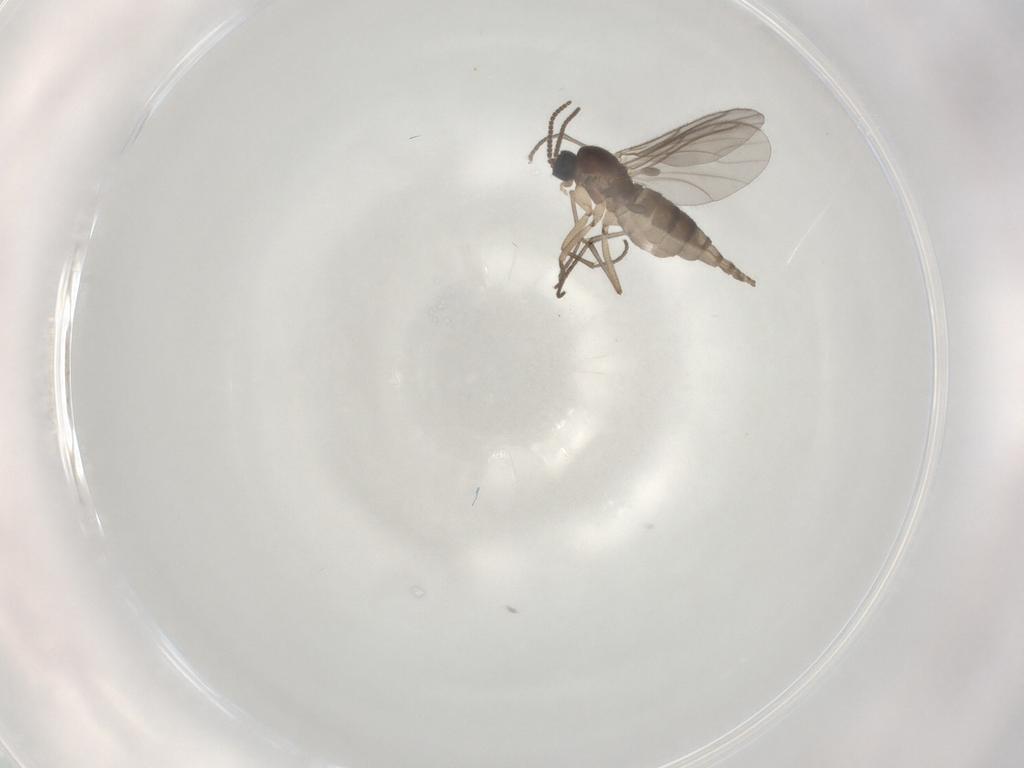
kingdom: Animalia
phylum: Arthropoda
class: Insecta
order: Diptera
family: Sciaridae
